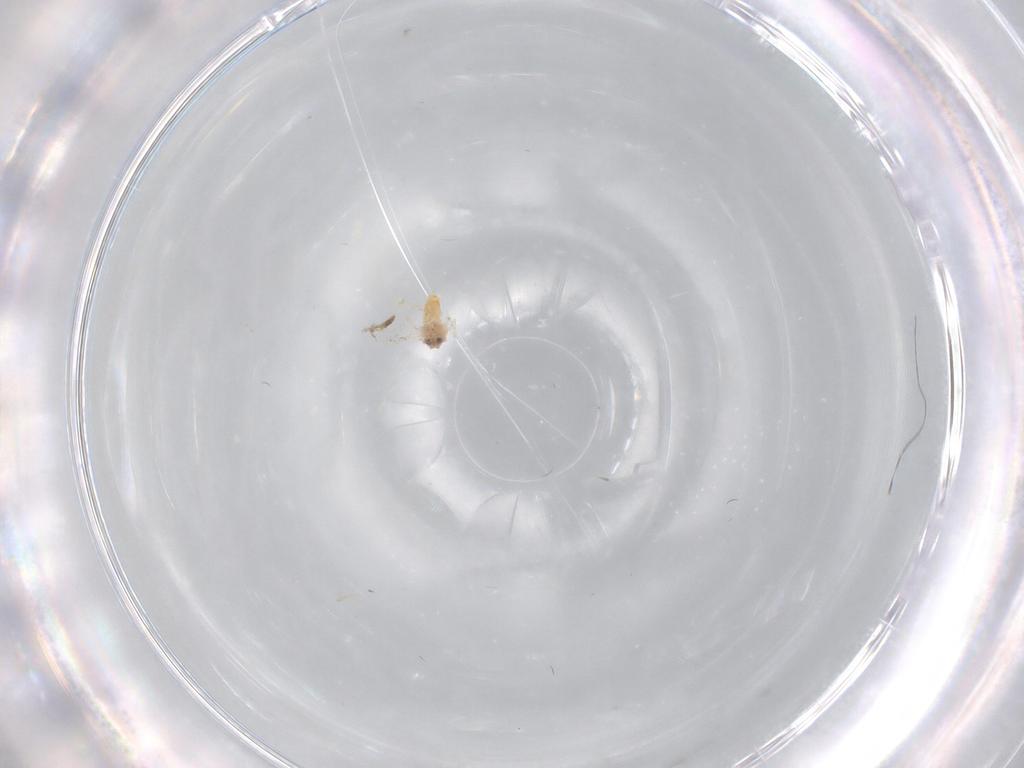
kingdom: Animalia
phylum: Arthropoda
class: Insecta
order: Hemiptera
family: Aleyrodidae
